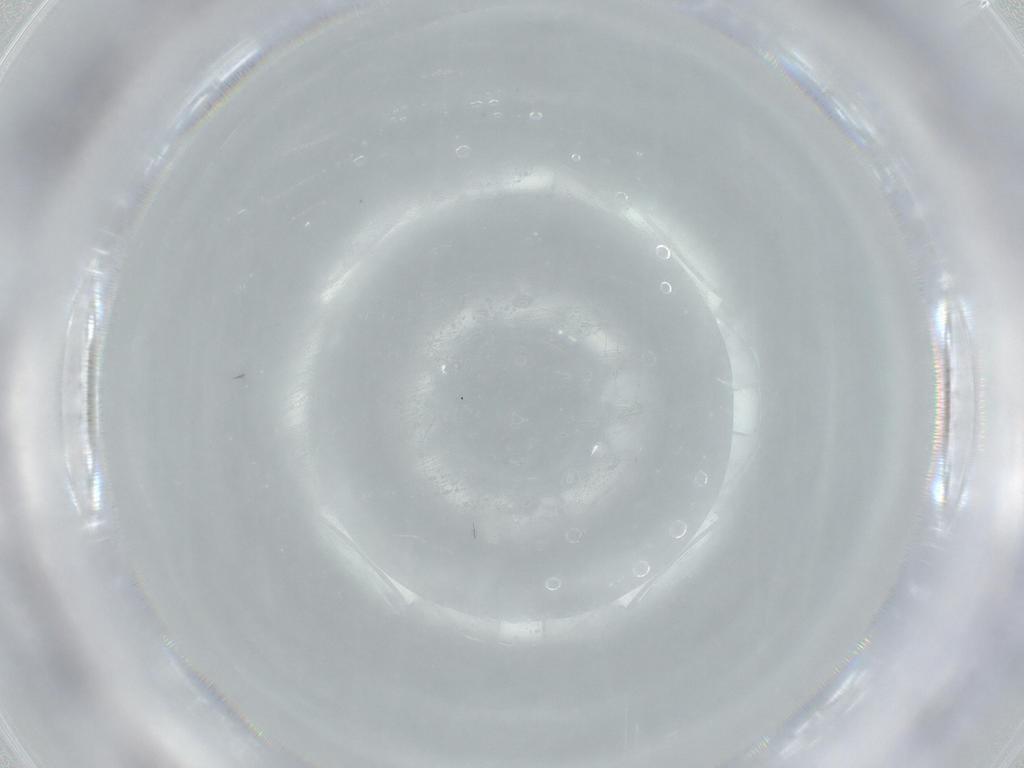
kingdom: Animalia
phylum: Arthropoda
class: Insecta
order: Diptera
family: Cecidomyiidae
